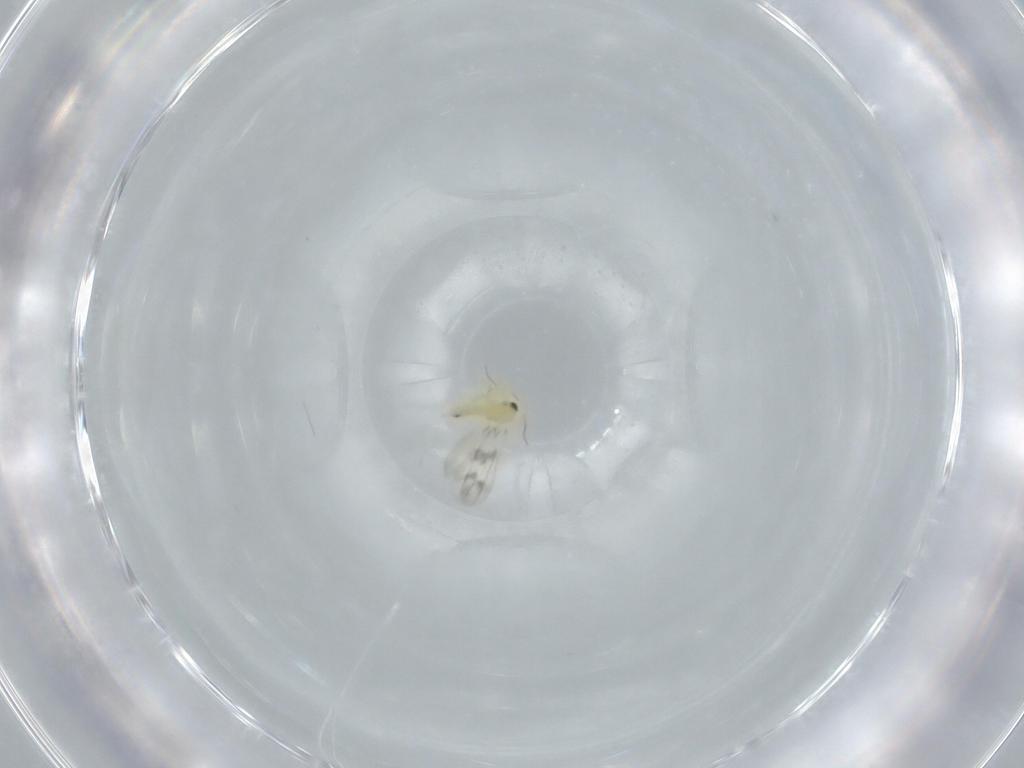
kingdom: Animalia
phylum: Arthropoda
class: Insecta
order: Hemiptera
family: Aleyrodidae
